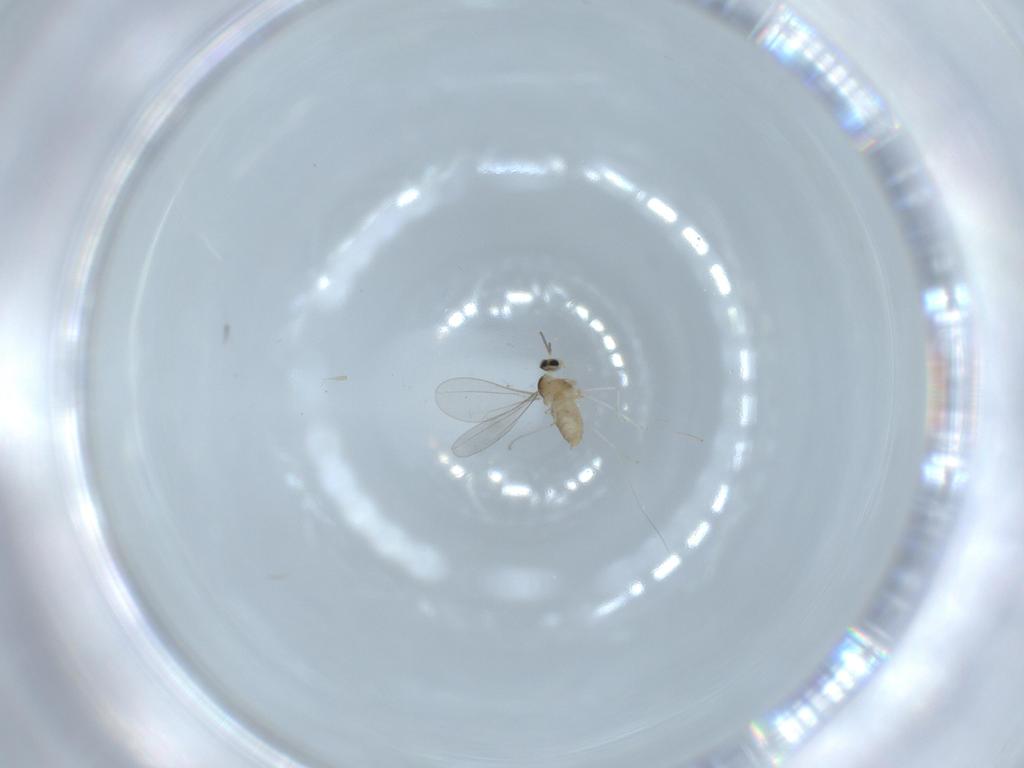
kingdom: Animalia
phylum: Arthropoda
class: Insecta
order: Diptera
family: Cecidomyiidae
